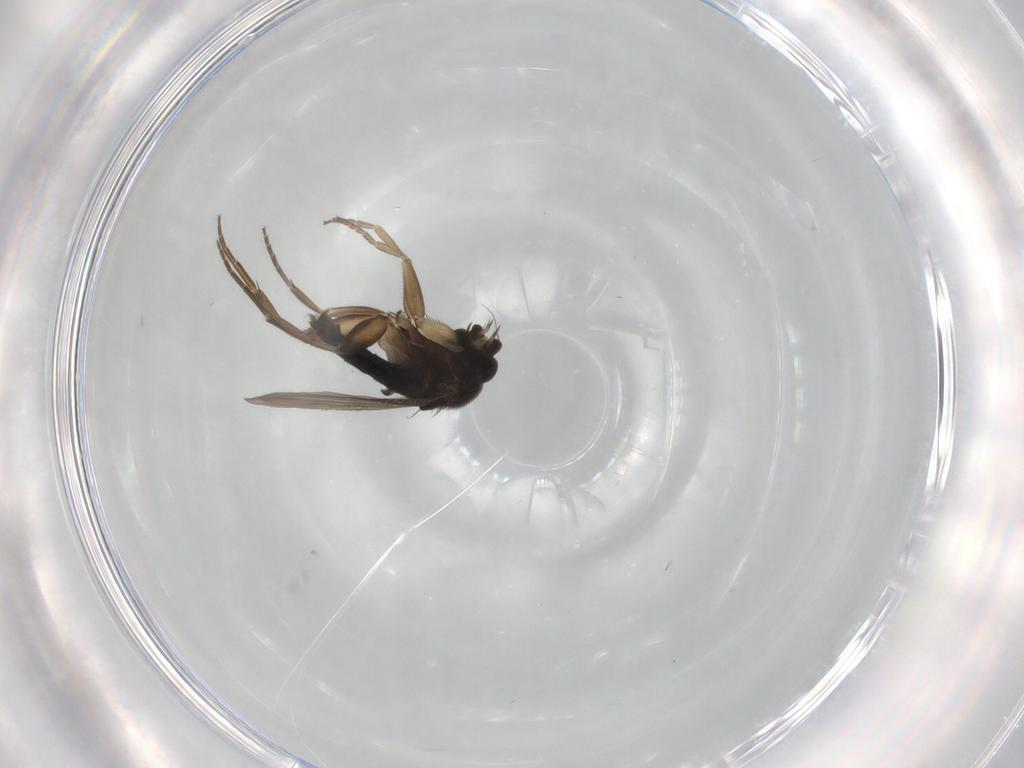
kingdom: Animalia
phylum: Arthropoda
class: Insecta
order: Diptera
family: Phoridae
